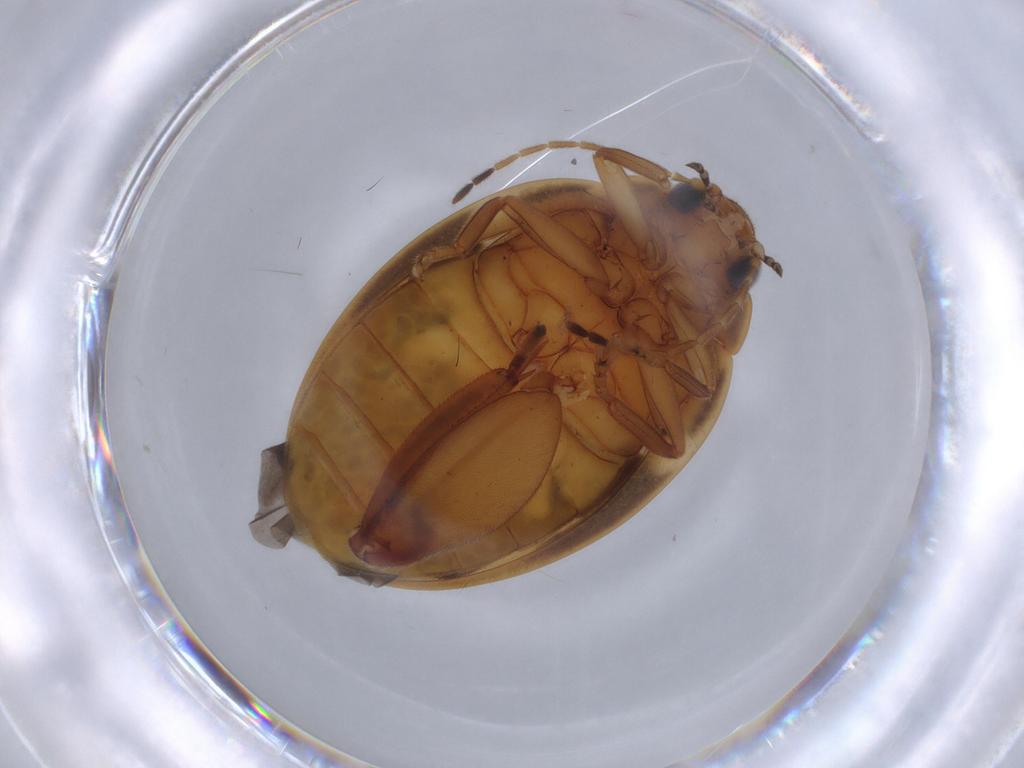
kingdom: Animalia
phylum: Arthropoda
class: Insecta
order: Coleoptera
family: Scirtidae
